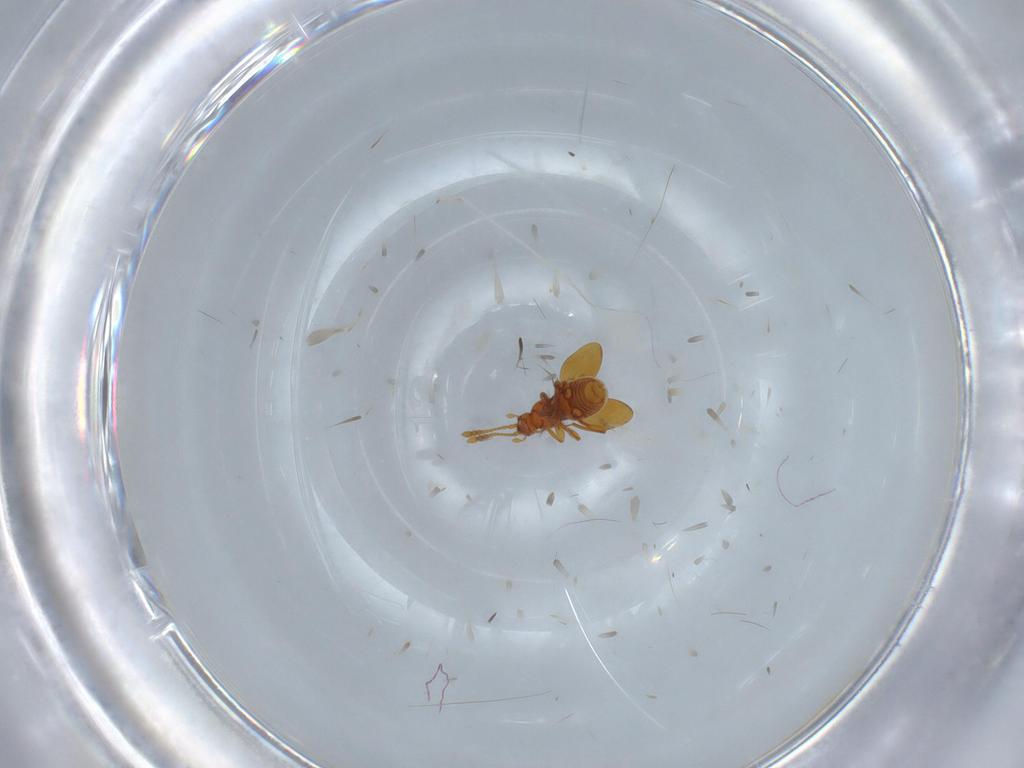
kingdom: Animalia
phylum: Arthropoda
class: Insecta
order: Coleoptera
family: Staphylinidae
